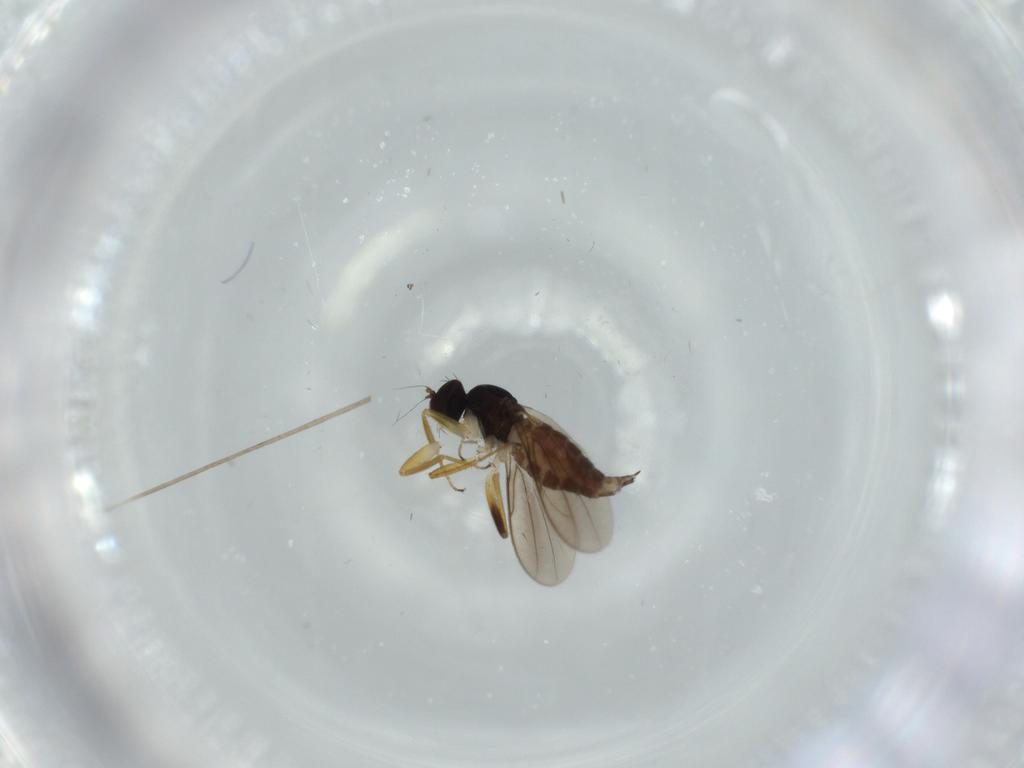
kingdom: Animalia
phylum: Arthropoda
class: Insecta
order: Diptera
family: Hybotidae
